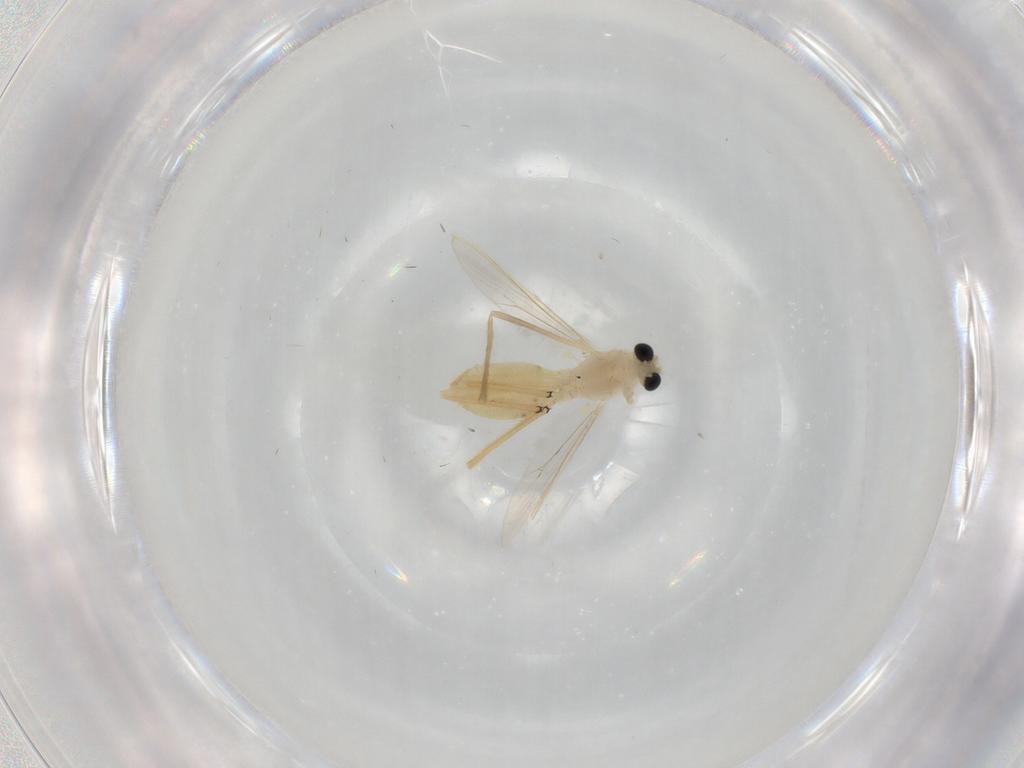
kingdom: Animalia
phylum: Arthropoda
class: Insecta
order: Diptera
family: Chironomidae
